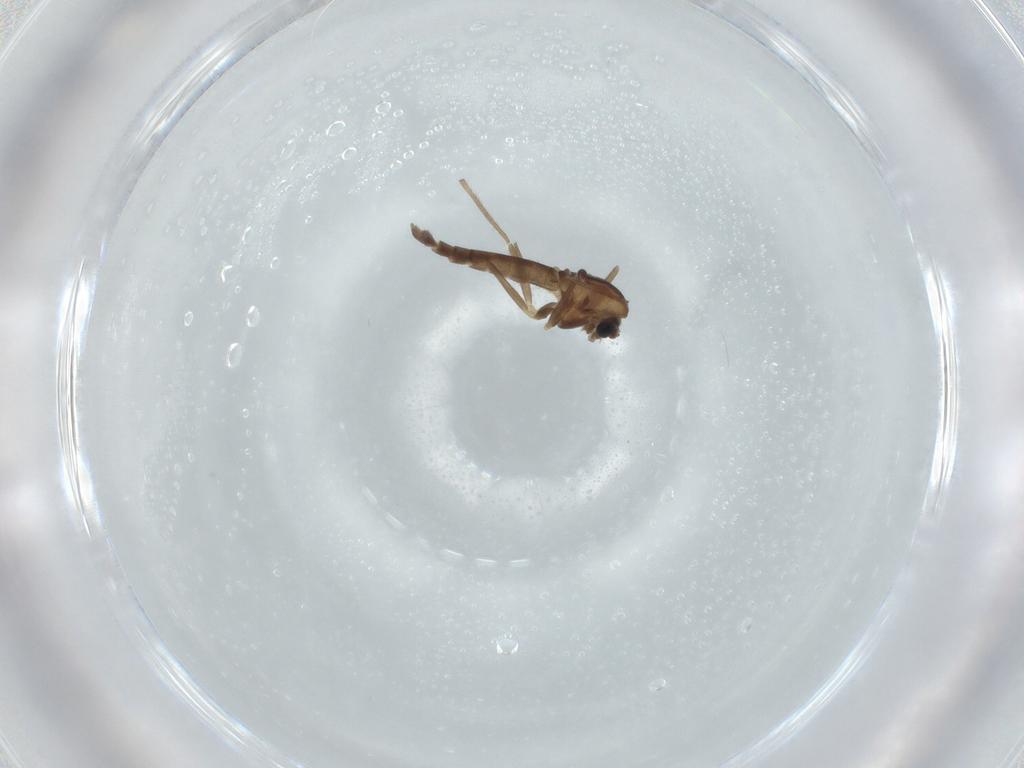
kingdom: Animalia
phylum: Arthropoda
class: Insecta
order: Diptera
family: Chironomidae
